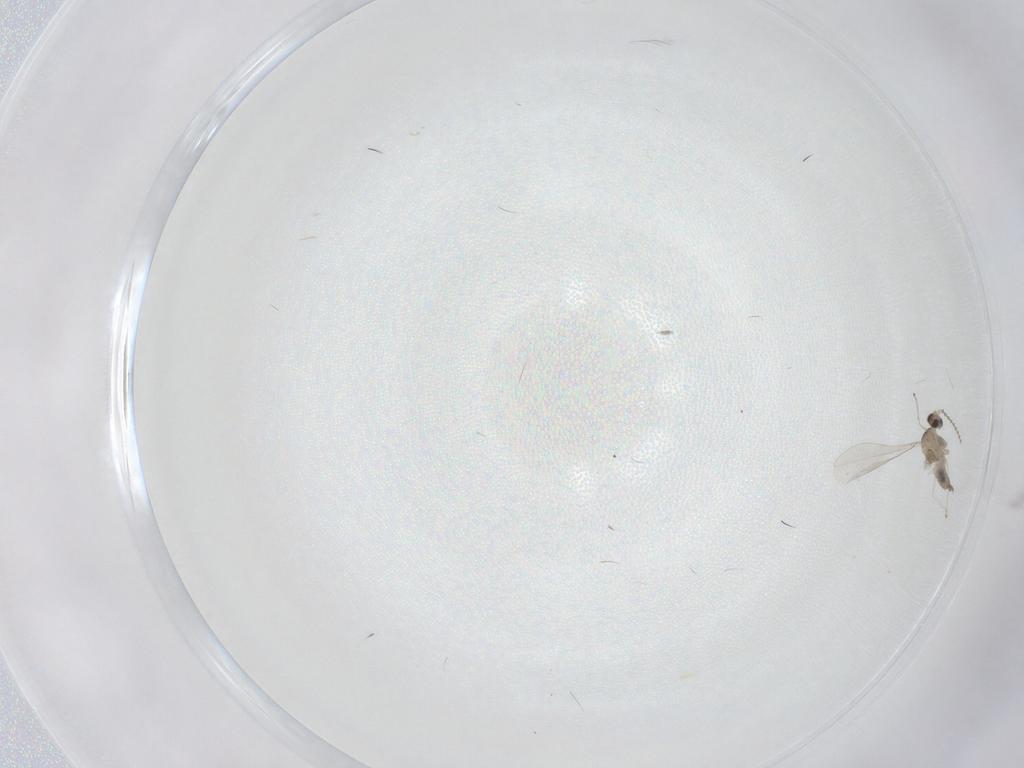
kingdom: Animalia
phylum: Arthropoda
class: Insecta
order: Diptera
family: Cecidomyiidae
